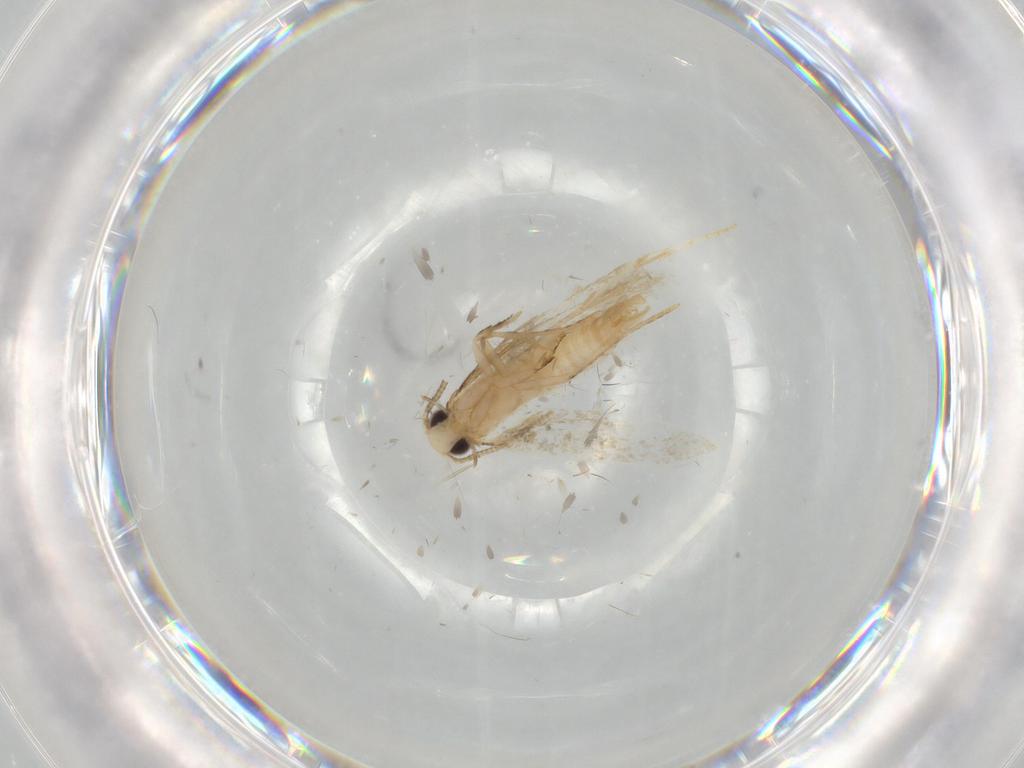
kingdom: Animalia
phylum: Arthropoda
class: Insecta
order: Lepidoptera
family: Tineidae
